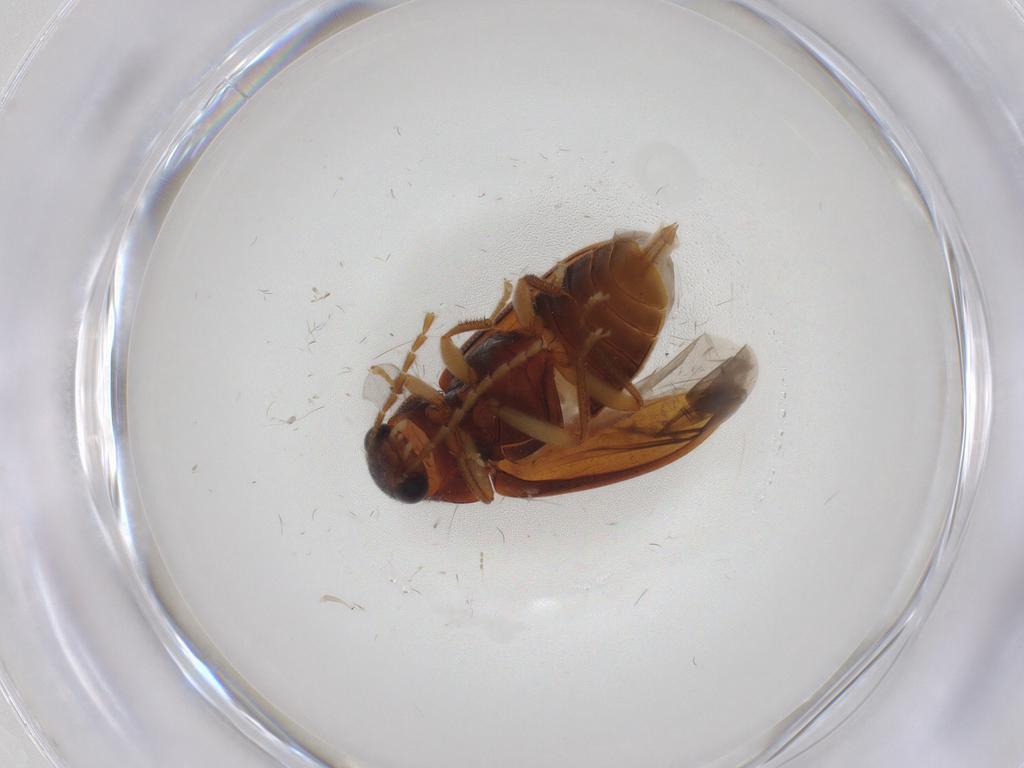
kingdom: Animalia
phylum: Arthropoda
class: Insecta
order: Coleoptera
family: Ptilodactylidae
